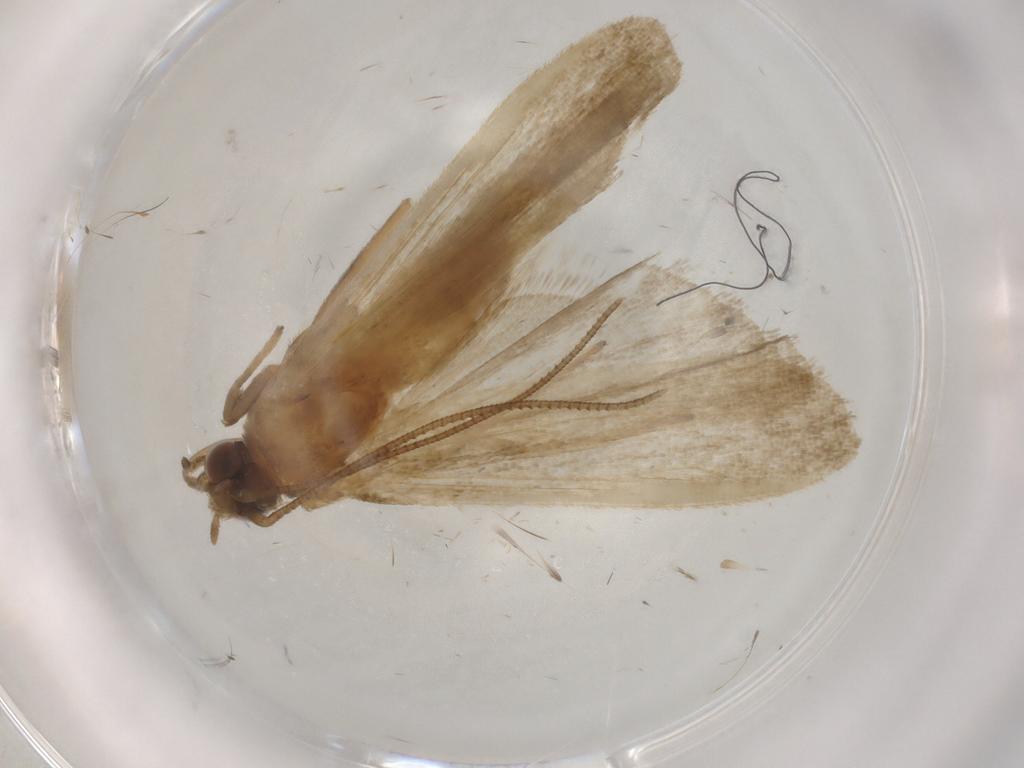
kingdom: Animalia
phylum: Arthropoda
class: Insecta
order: Lepidoptera
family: Noctuidae
